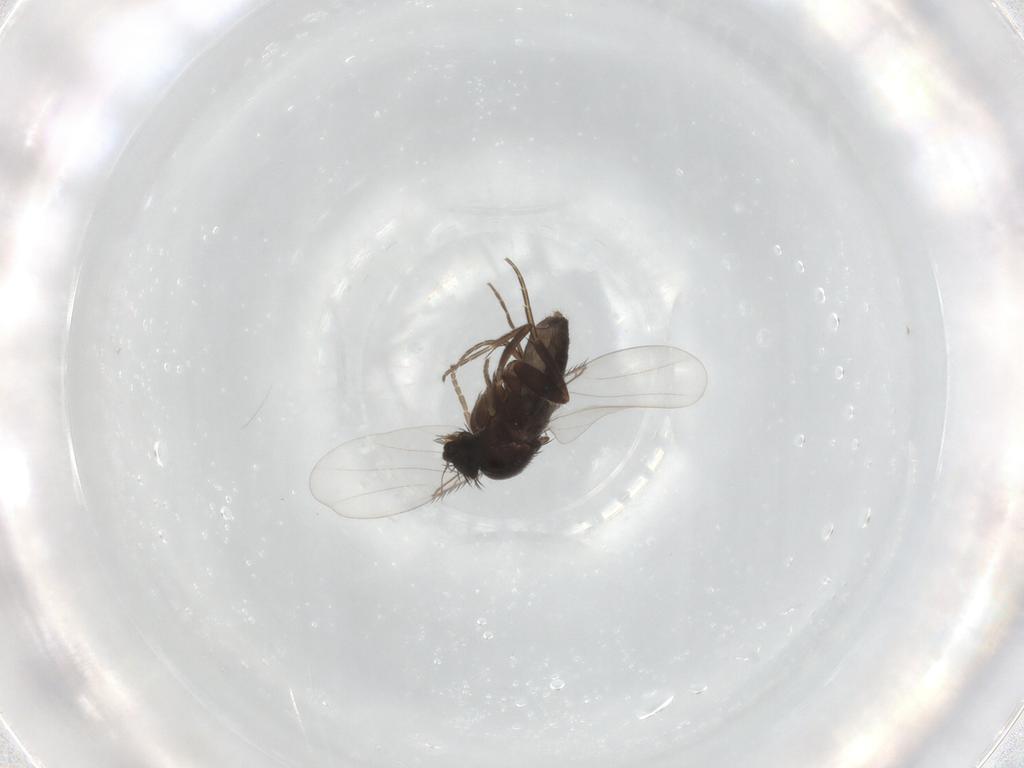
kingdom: Animalia
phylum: Arthropoda
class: Insecta
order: Diptera
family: Phoridae
